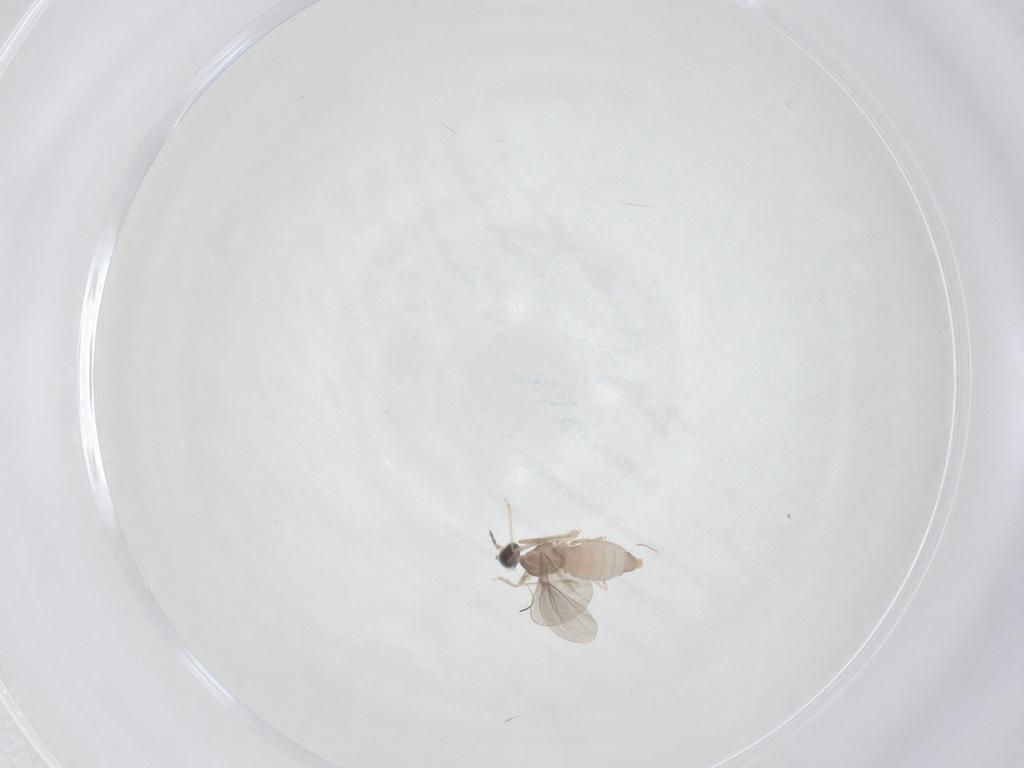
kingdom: Animalia
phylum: Arthropoda
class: Insecta
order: Diptera
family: Cecidomyiidae
